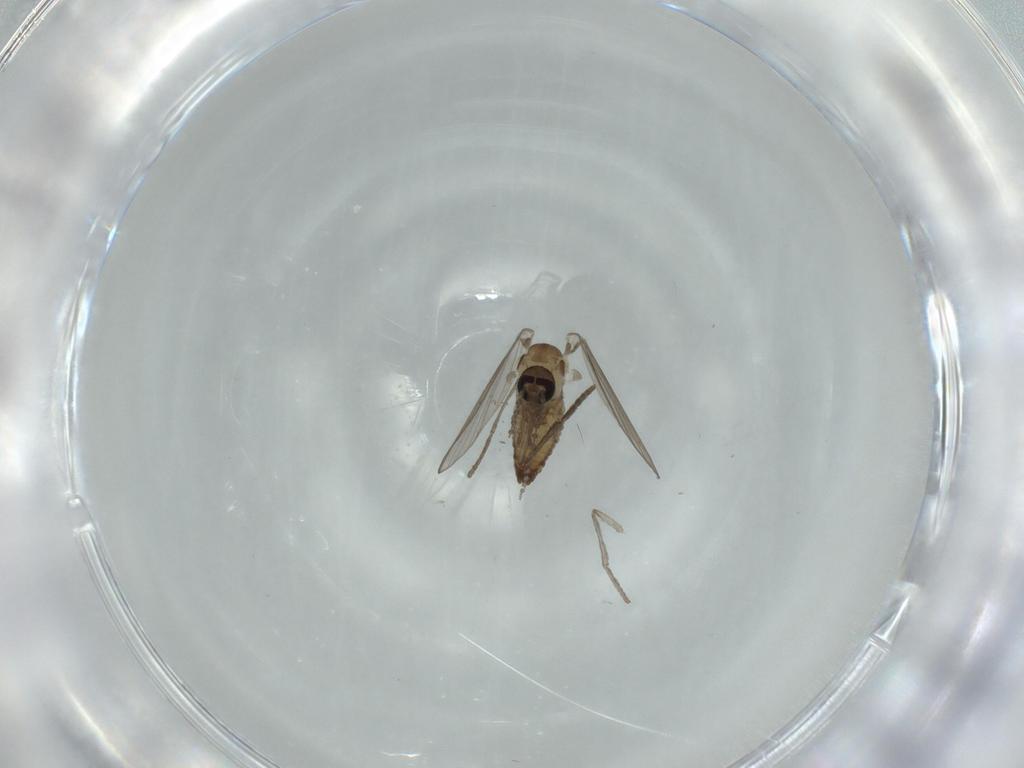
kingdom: Animalia
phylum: Arthropoda
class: Insecta
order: Diptera
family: Psychodidae
